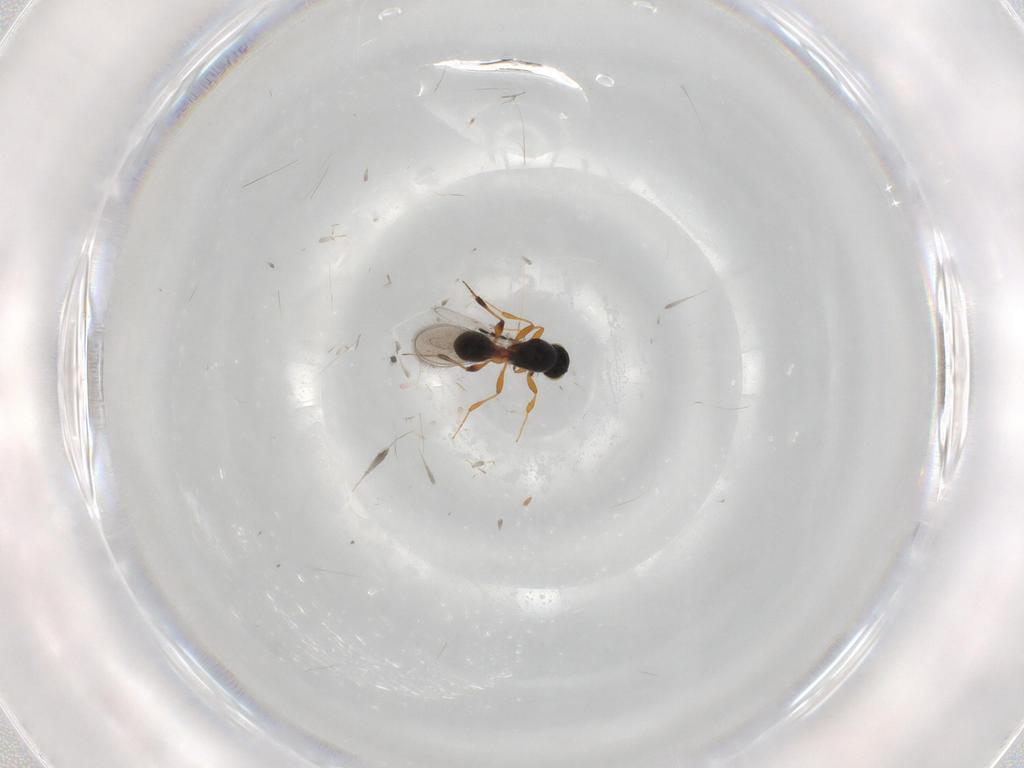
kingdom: Animalia
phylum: Arthropoda
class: Insecta
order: Hymenoptera
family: Platygastridae
